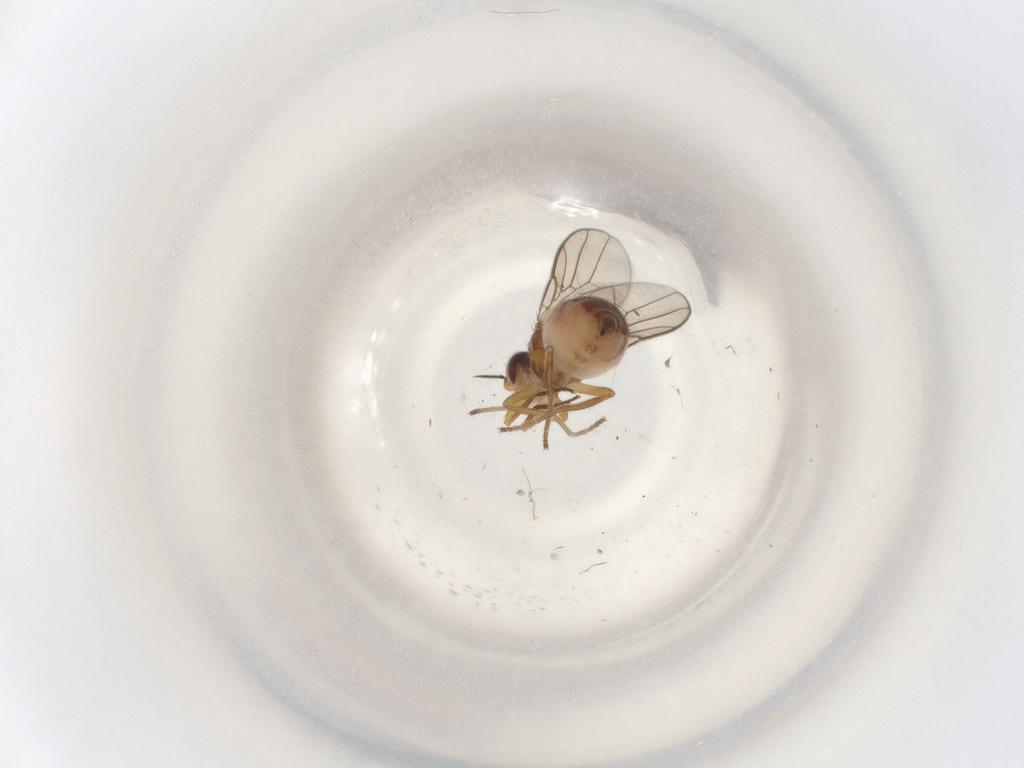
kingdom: Animalia
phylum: Arthropoda
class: Insecta
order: Diptera
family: Chloropidae
